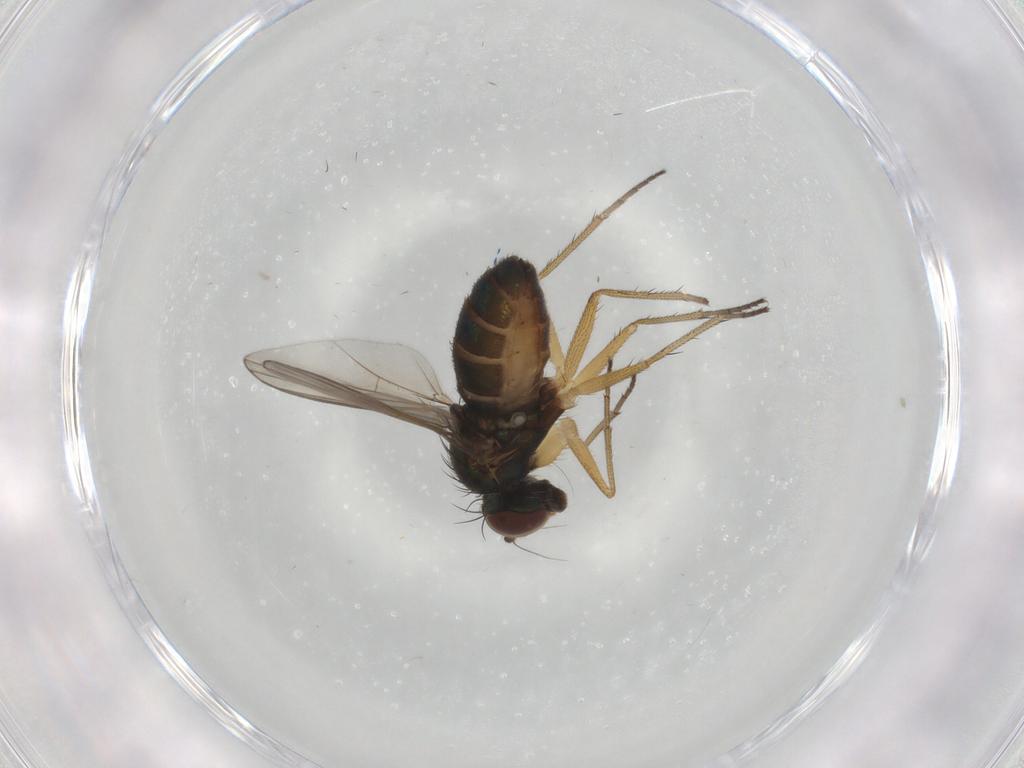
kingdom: Animalia
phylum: Arthropoda
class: Insecta
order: Diptera
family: Dolichopodidae
